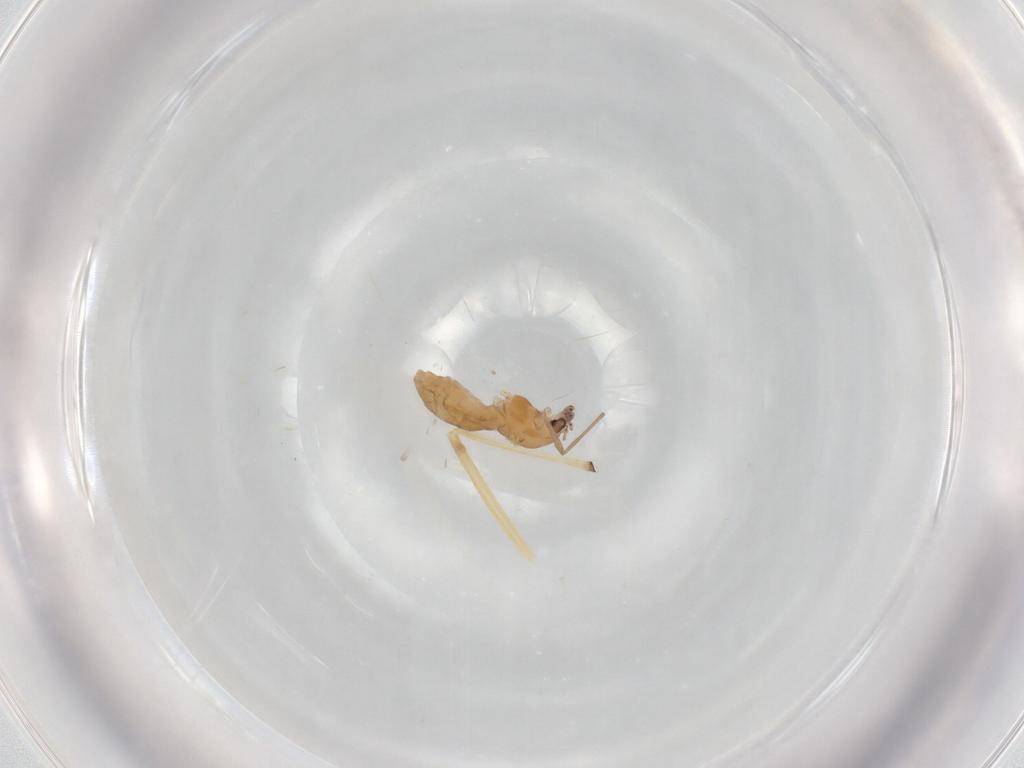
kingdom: Animalia
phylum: Arthropoda
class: Insecta
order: Diptera
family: Chironomidae
